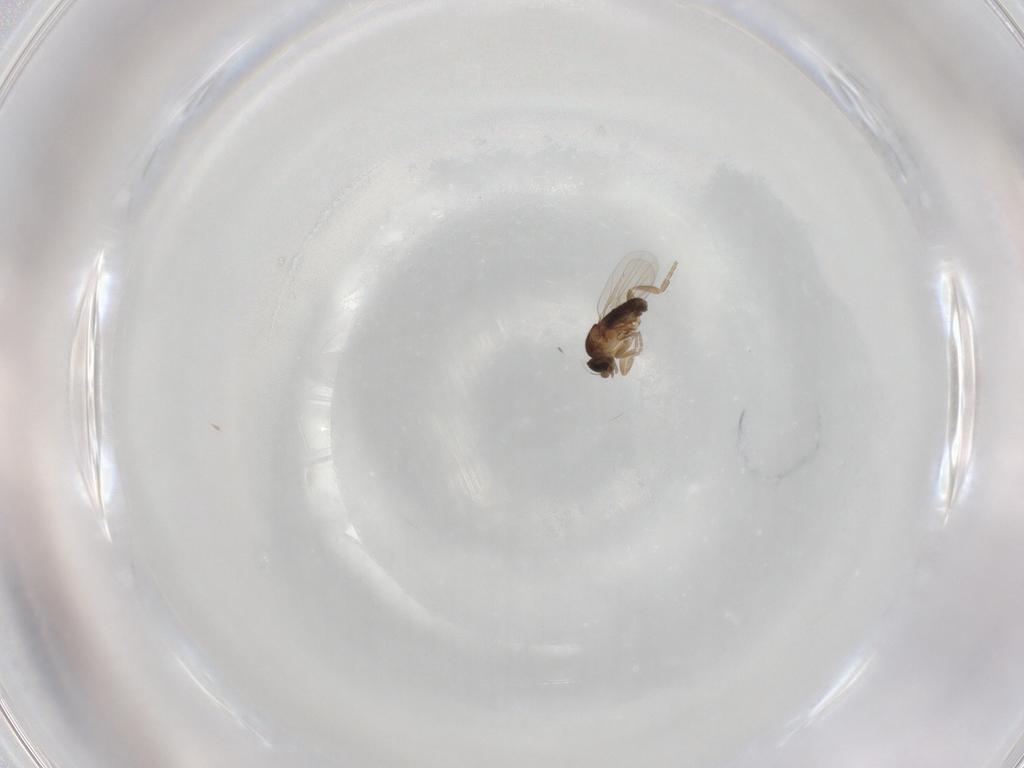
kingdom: Animalia
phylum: Arthropoda
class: Insecta
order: Diptera
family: Phoridae
